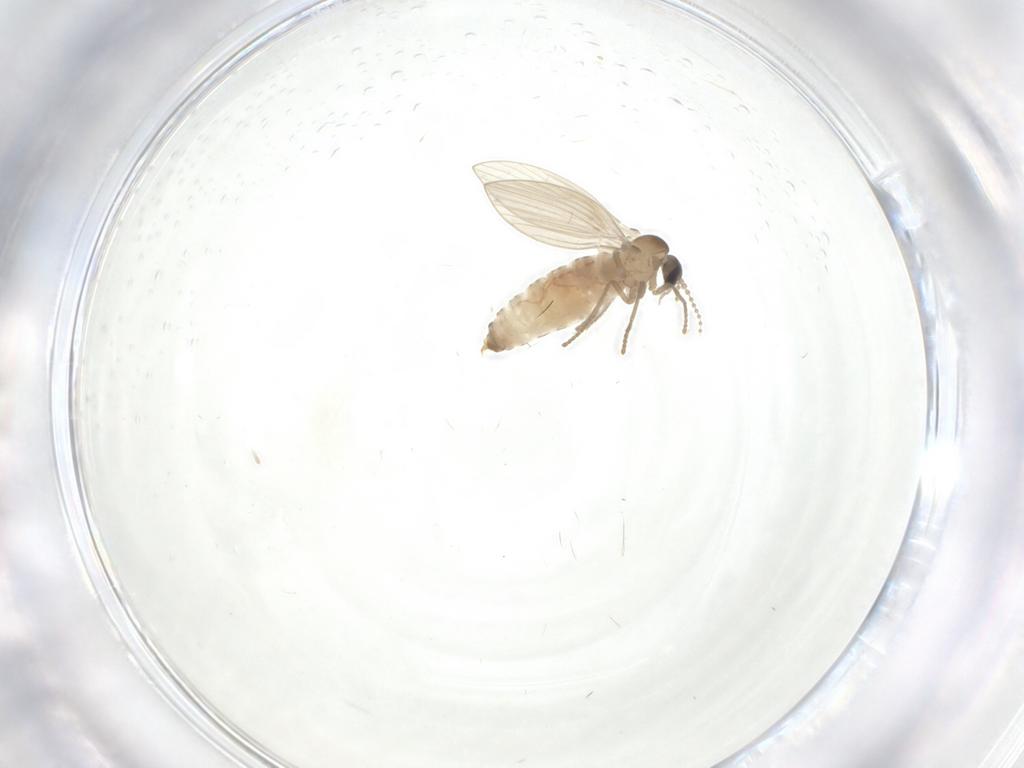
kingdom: Animalia
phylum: Arthropoda
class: Insecta
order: Diptera
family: Psychodidae
